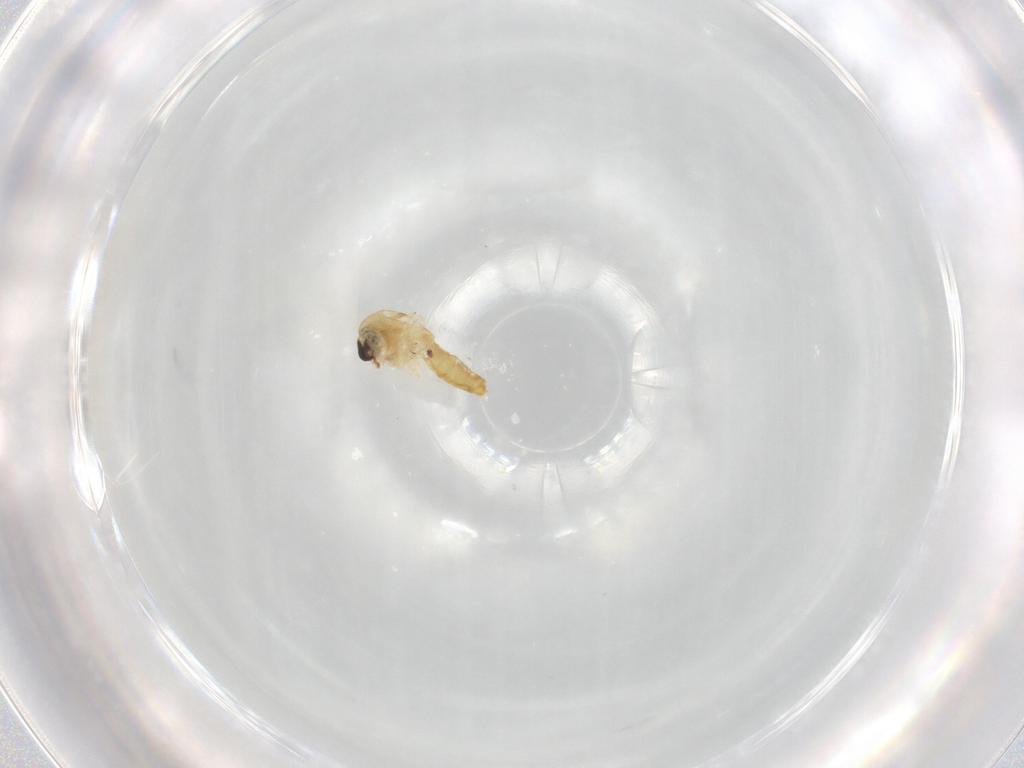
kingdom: Animalia
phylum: Arthropoda
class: Insecta
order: Diptera
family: Chironomidae
